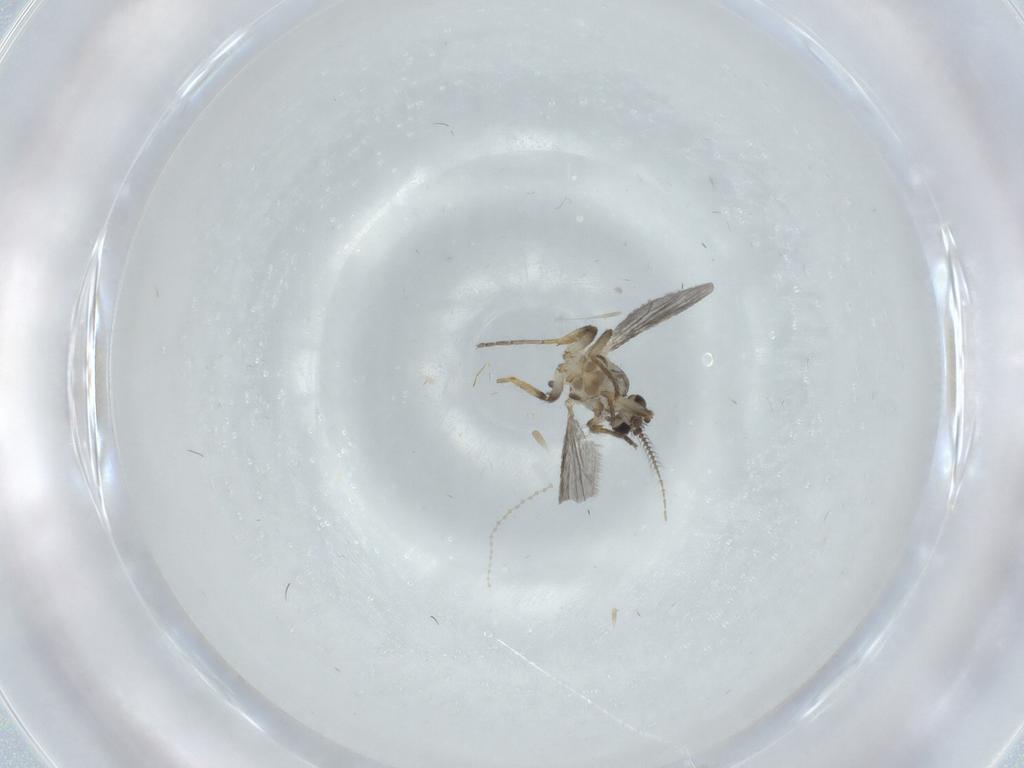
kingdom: Animalia
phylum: Arthropoda
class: Insecta
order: Diptera
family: Ceratopogonidae
